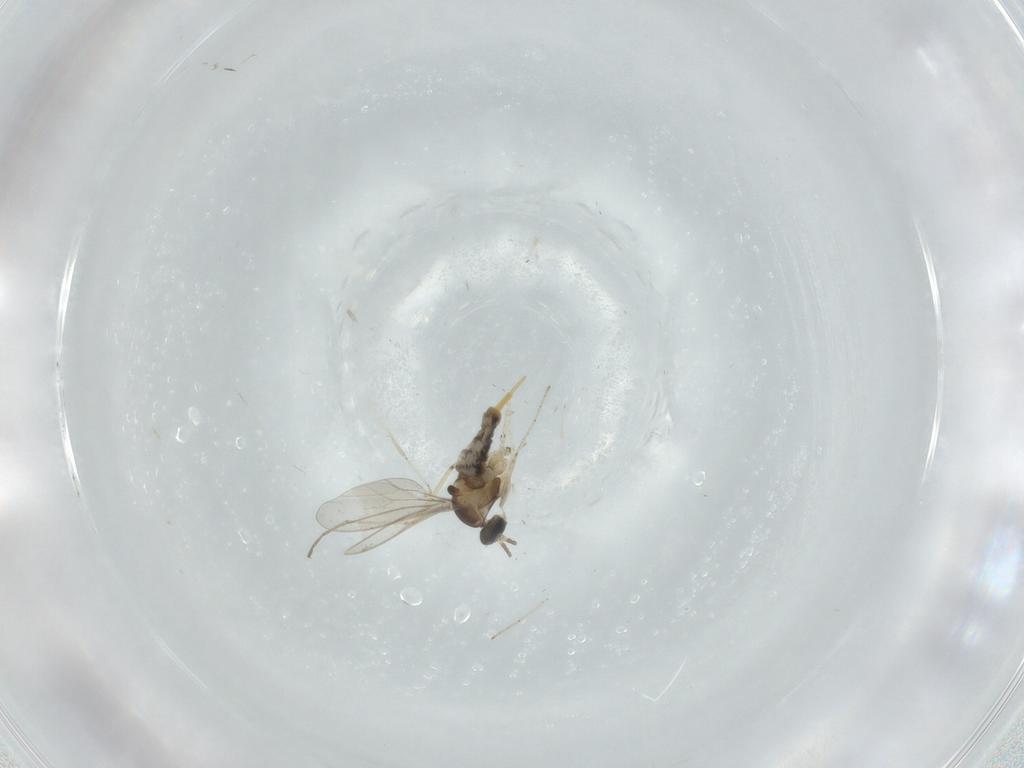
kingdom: Animalia
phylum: Arthropoda
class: Insecta
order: Diptera
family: Cecidomyiidae
